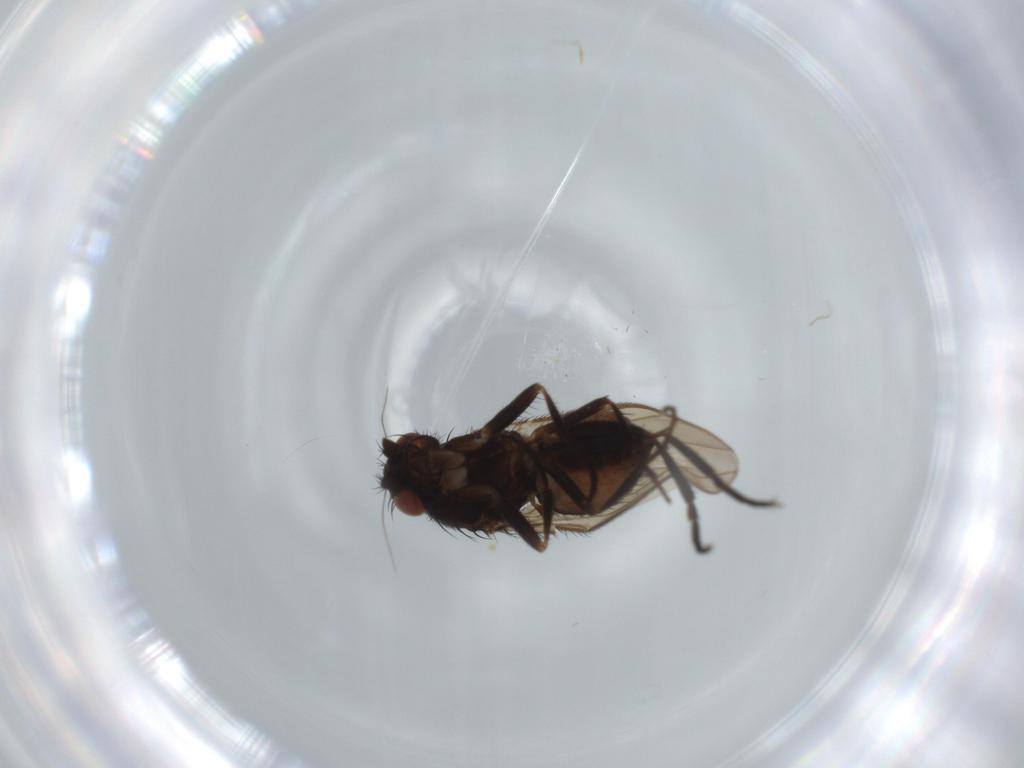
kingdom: Animalia
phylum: Arthropoda
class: Insecta
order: Diptera
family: Sphaeroceridae
